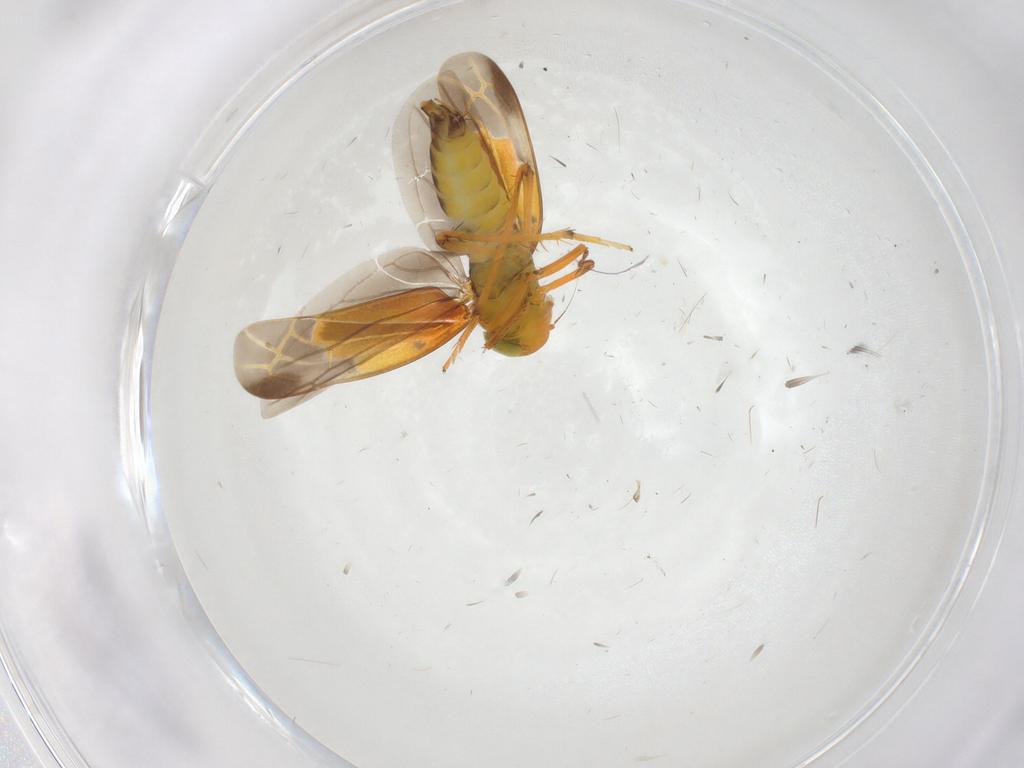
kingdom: Animalia
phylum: Arthropoda
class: Insecta
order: Hemiptera
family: Cicadellidae
